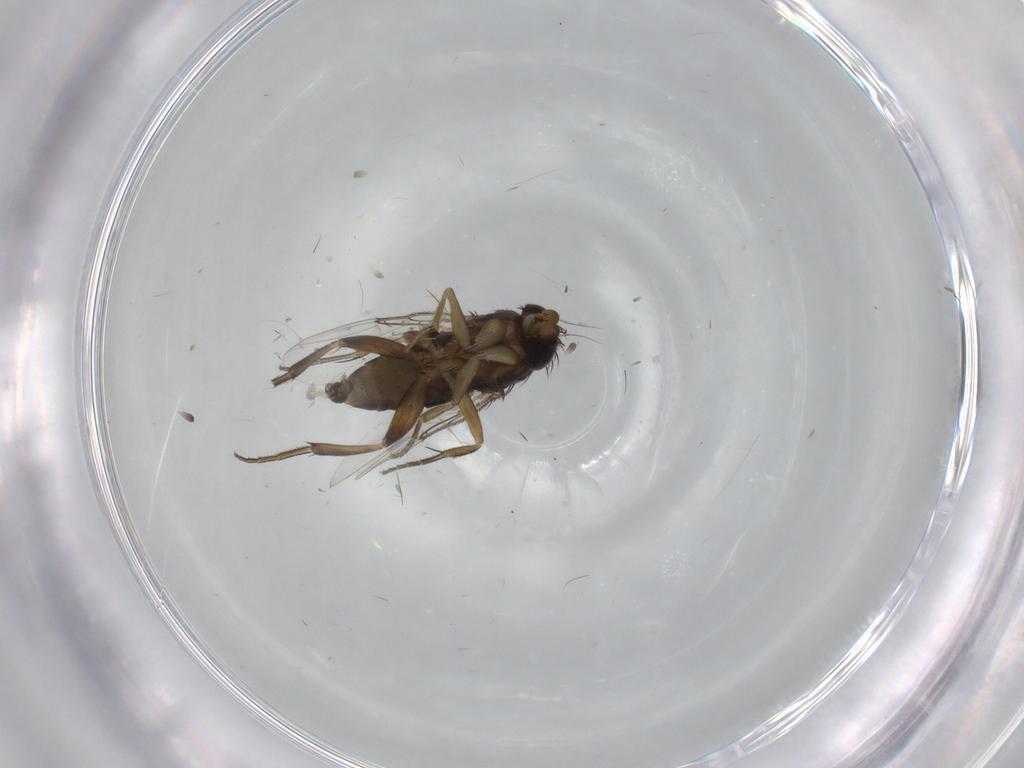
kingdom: Animalia
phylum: Arthropoda
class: Insecta
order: Diptera
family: Phoridae
